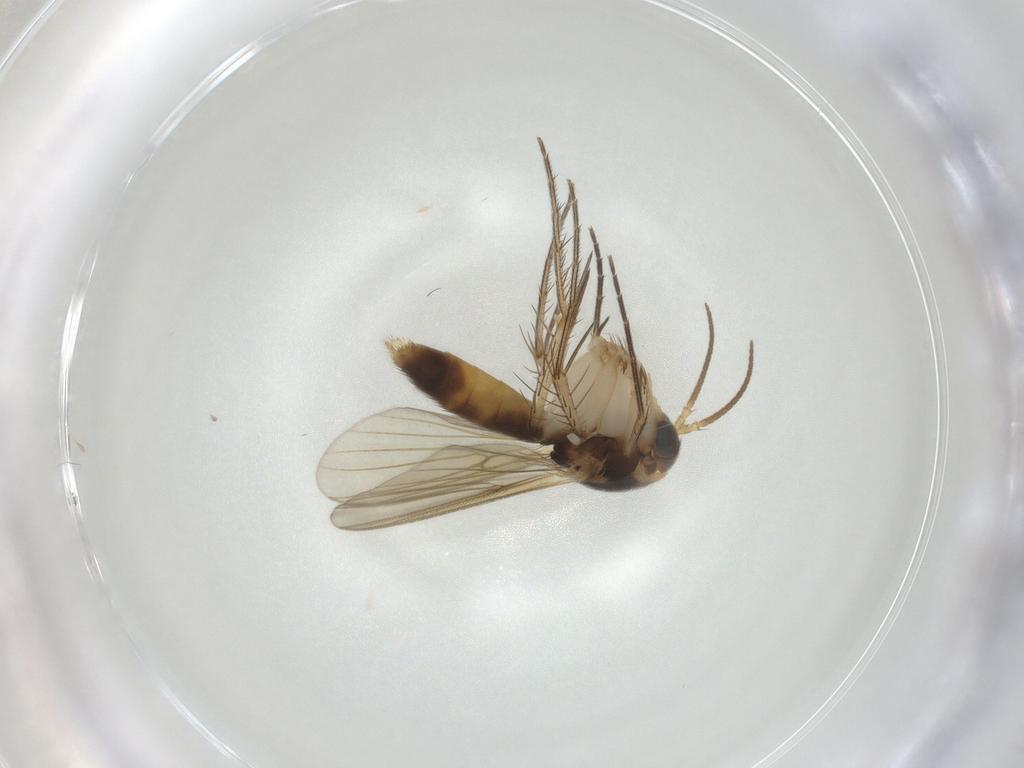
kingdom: Animalia
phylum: Arthropoda
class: Insecta
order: Diptera
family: Mycetophilidae
